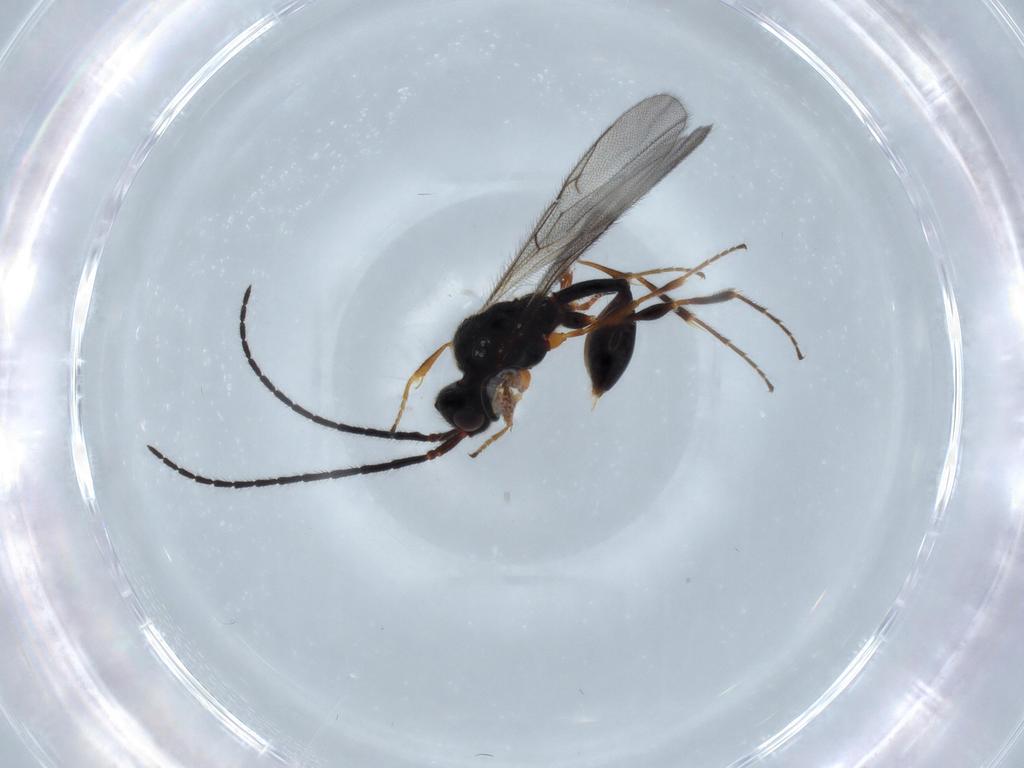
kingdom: Animalia
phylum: Arthropoda
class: Insecta
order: Hymenoptera
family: Diapriidae
